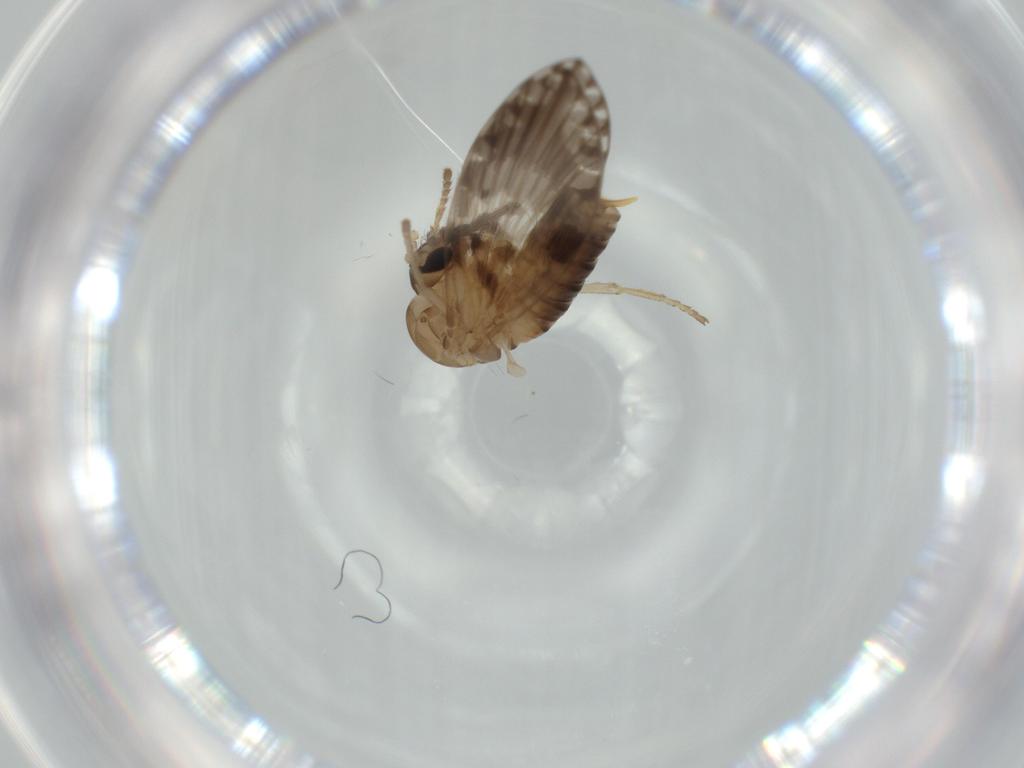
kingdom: Animalia
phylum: Arthropoda
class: Insecta
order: Diptera
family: Psychodidae
